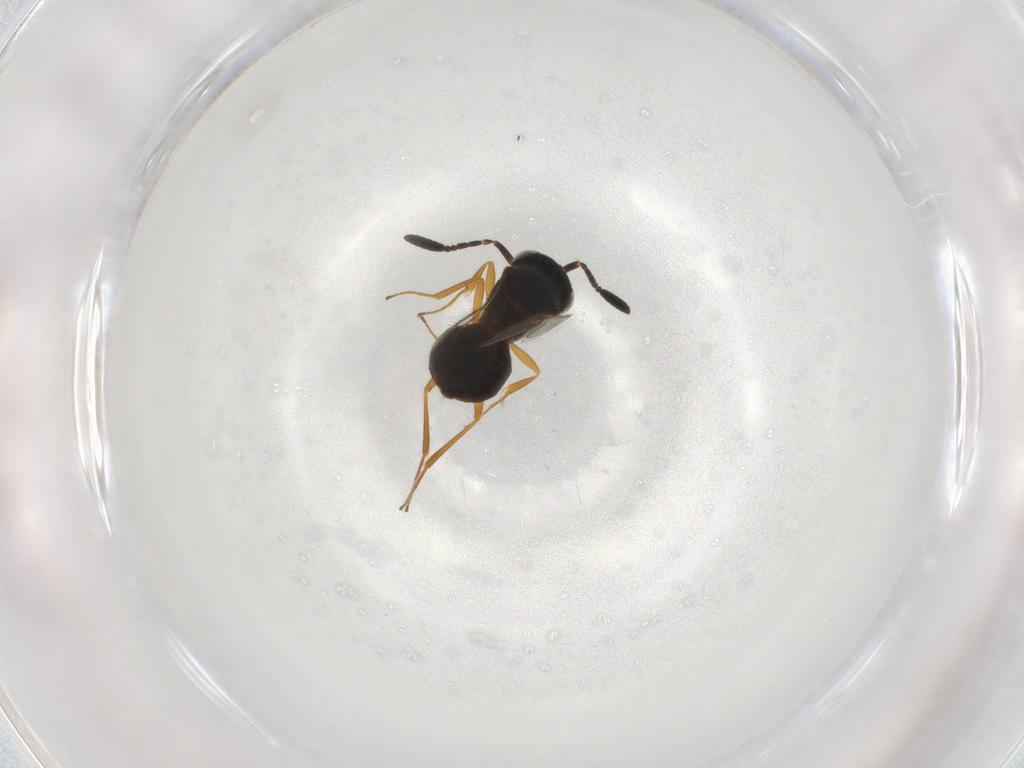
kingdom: Animalia
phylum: Arthropoda
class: Insecta
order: Hymenoptera
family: Scelionidae
